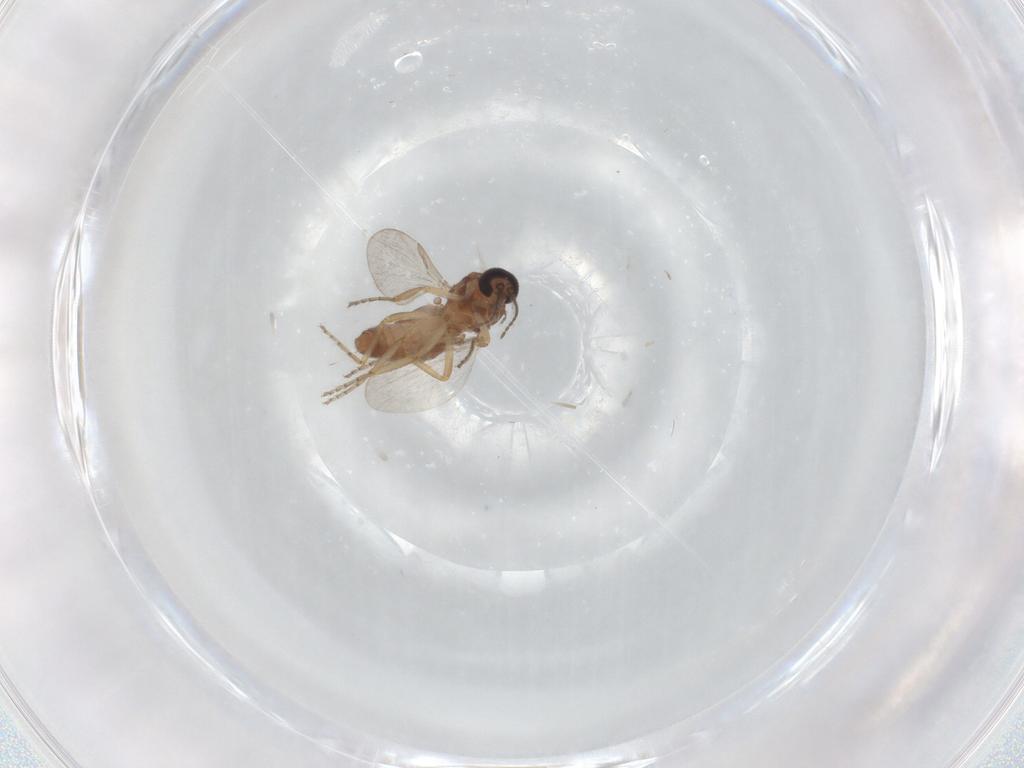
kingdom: Animalia
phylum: Arthropoda
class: Insecta
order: Diptera
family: Ceratopogonidae
